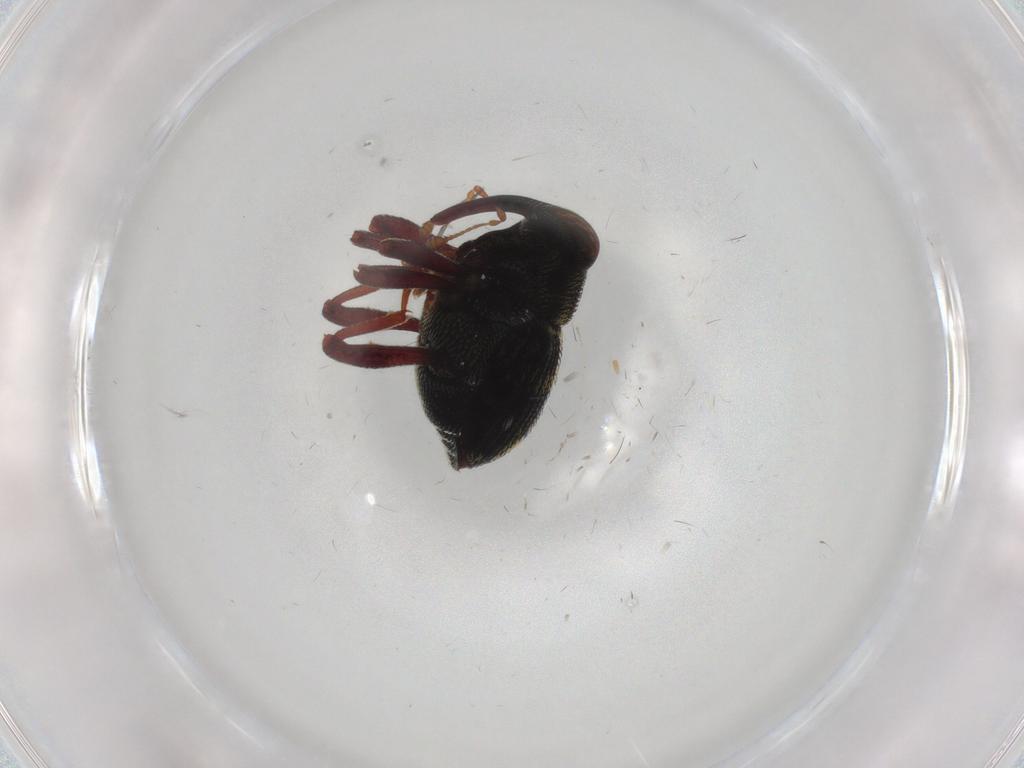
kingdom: Animalia
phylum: Arthropoda
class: Insecta
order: Coleoptera
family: Curculionidae
